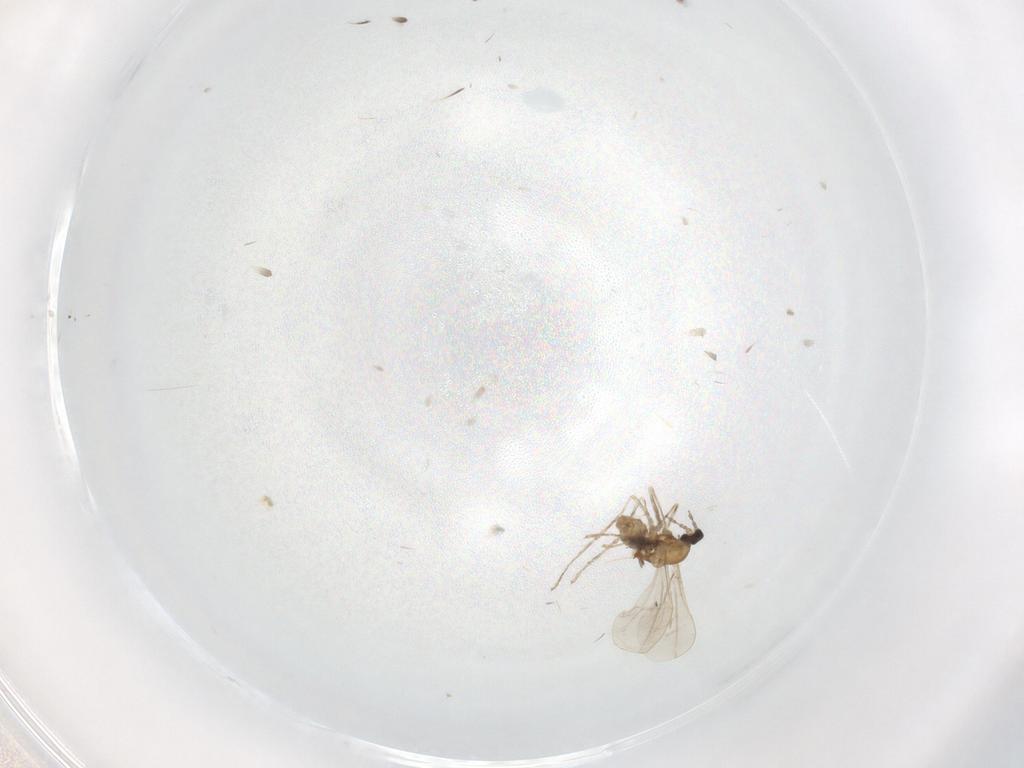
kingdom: Animalia
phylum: Arthropoda
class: Insecta
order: Diptera
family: Cecidomyiidae
